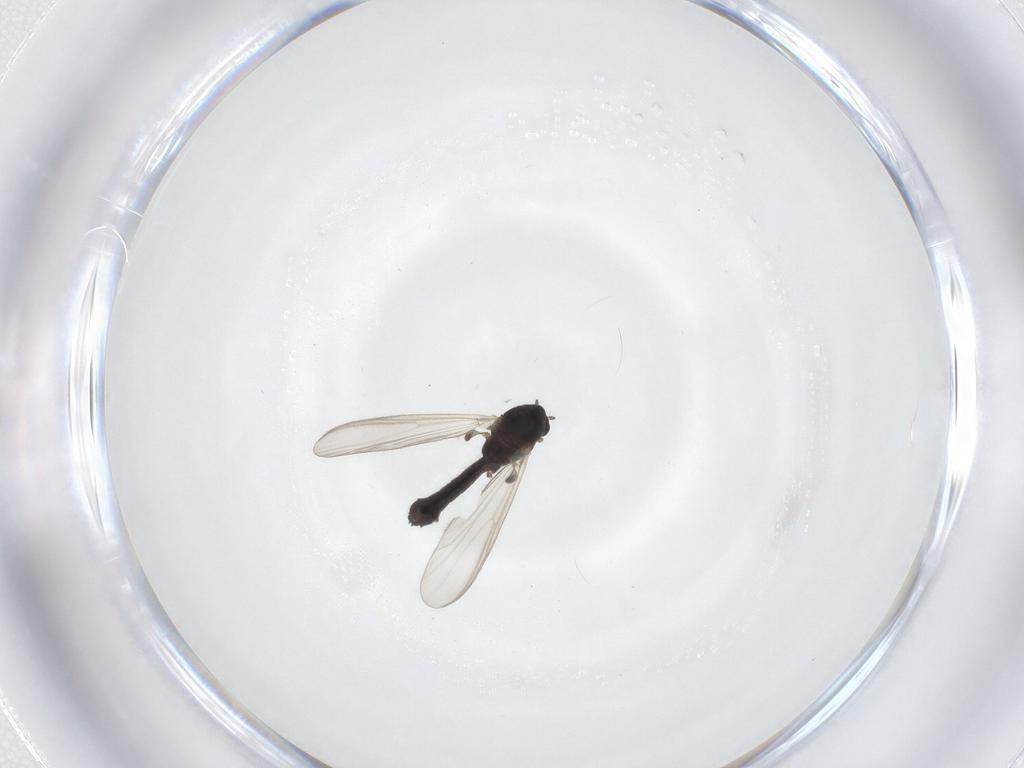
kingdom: Animalia
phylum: Arthropoda
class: Insecta
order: Diptera
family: Chironomidae
